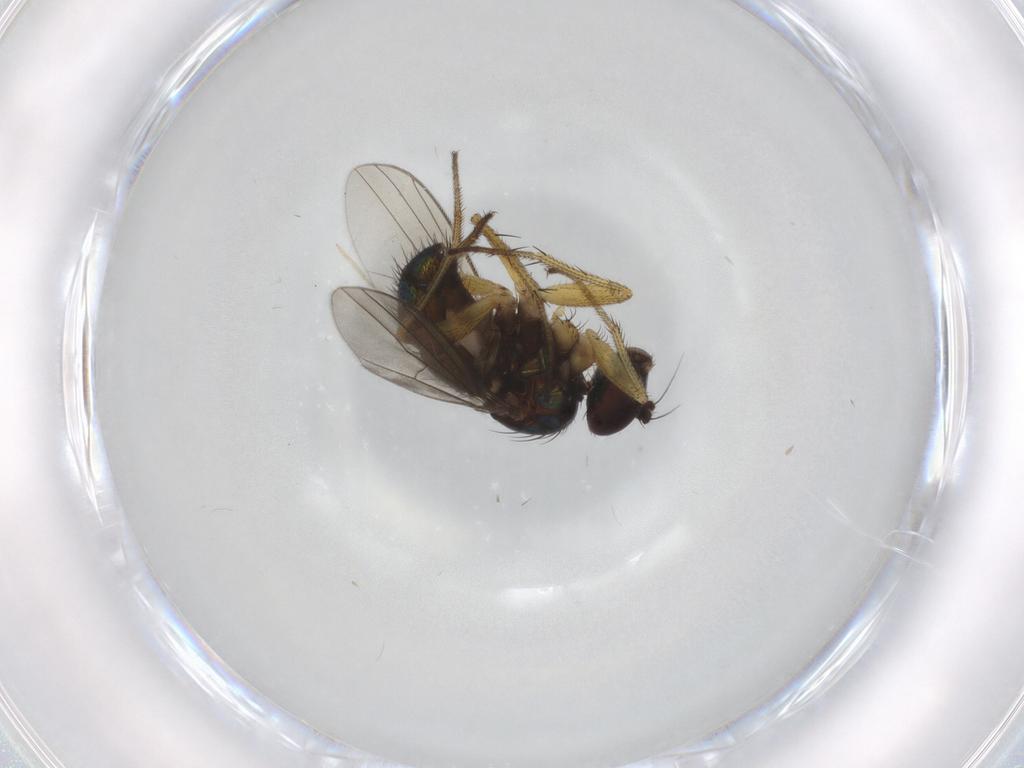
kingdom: Animalia
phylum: Arthropoda
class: Insecta
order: Diptera
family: Dolichopodidae
